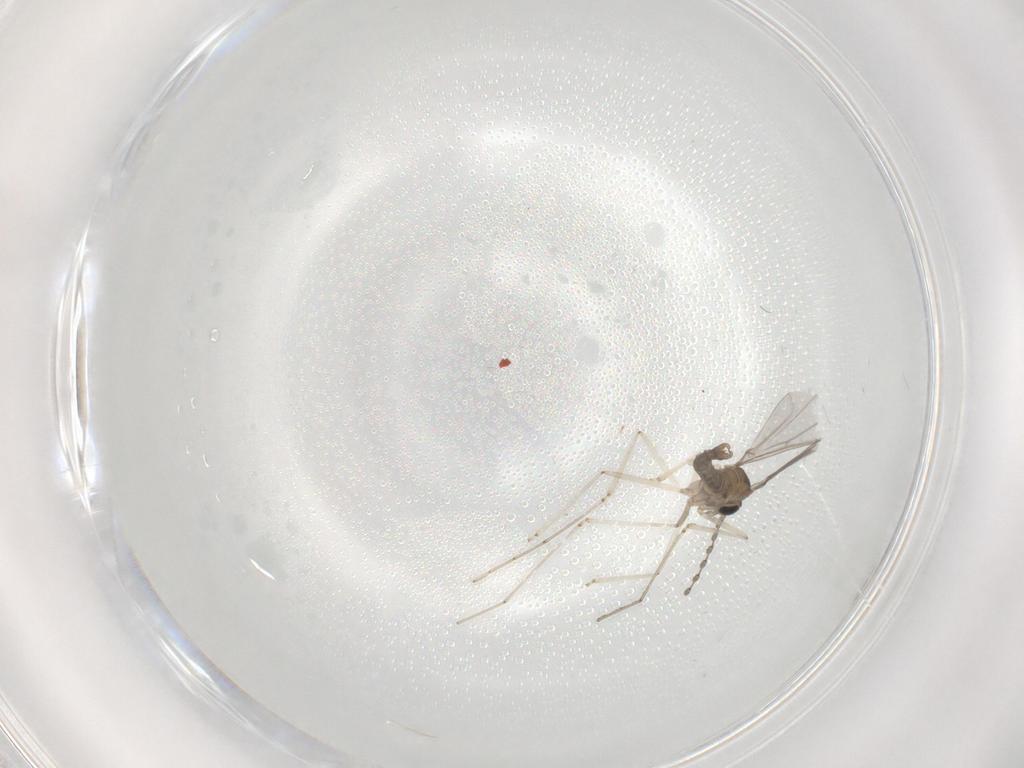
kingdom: Animalia
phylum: Arthropoda
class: Insecta
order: Diptera
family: Cecidomyiidae
